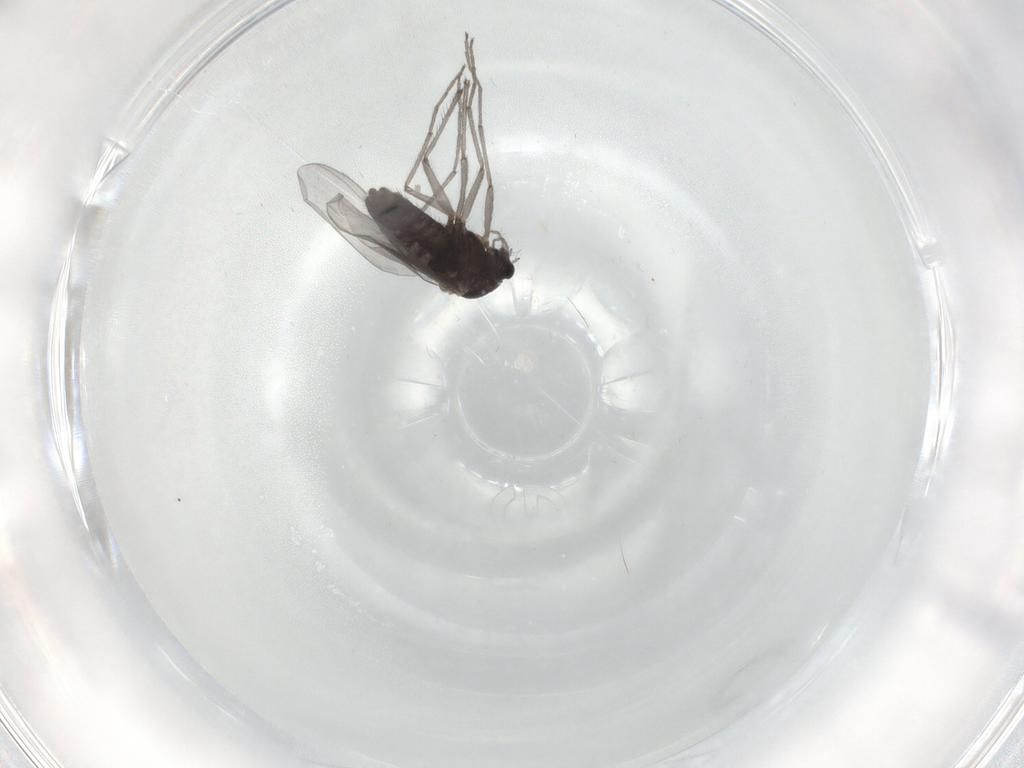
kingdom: Animalia
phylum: Arthropoda
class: Insecta
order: Diptera
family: Chironomidae
